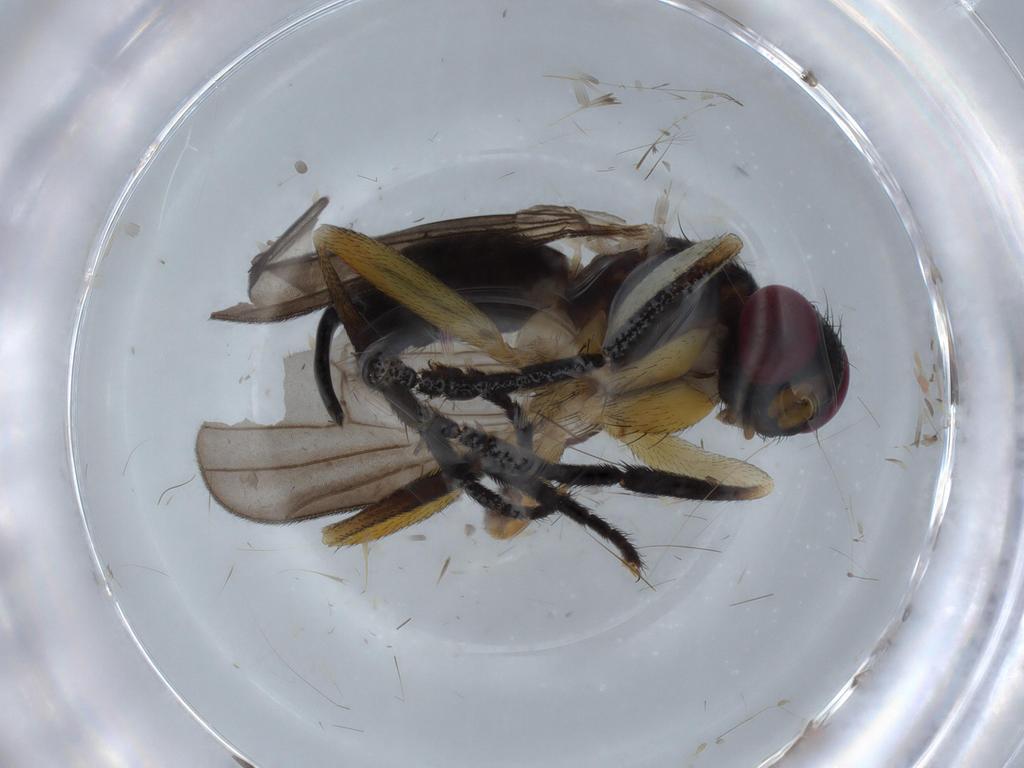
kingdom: Animalia
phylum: Arthropoda
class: Insecta
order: Diptera
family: Calliphoridae
